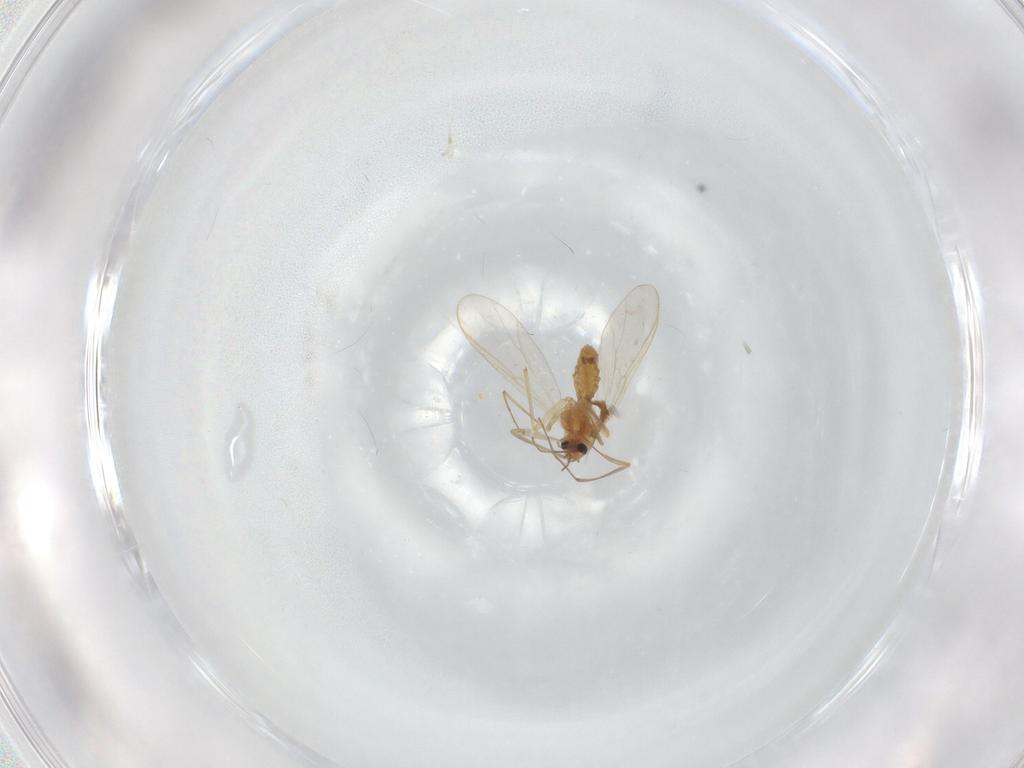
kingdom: Animalia
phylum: Arthropoda
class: Insecta
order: Diptera
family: Chironomidae
